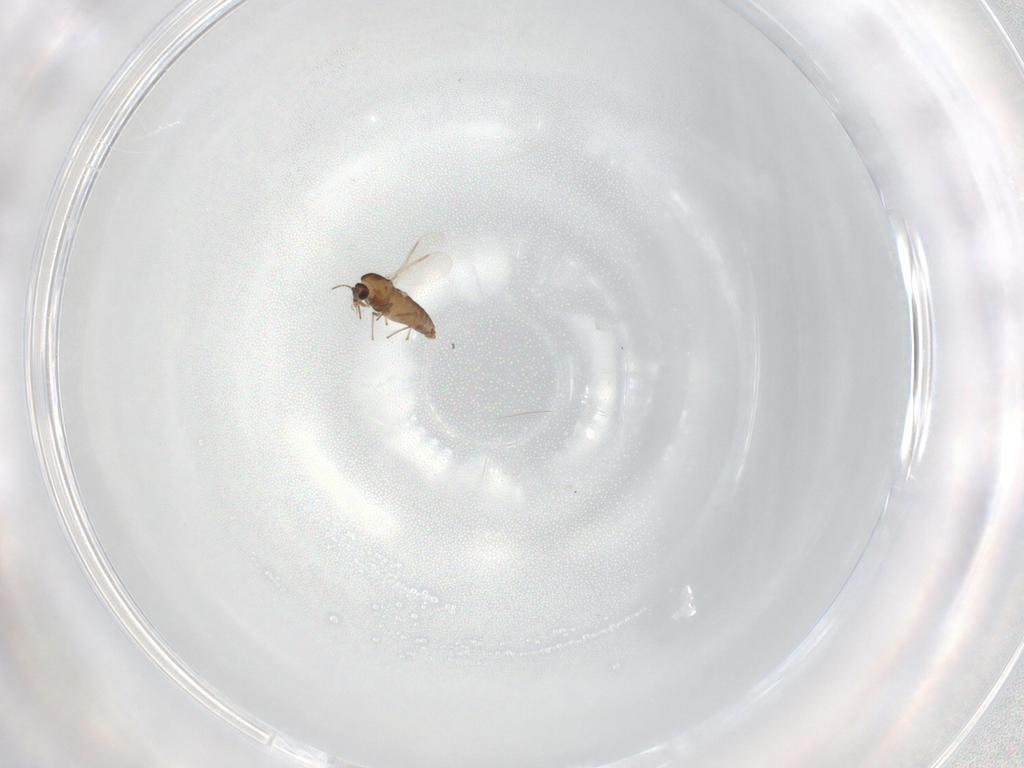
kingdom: Animalia
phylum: Arthropoda
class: Insecta
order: Diptera
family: Chironomidae
